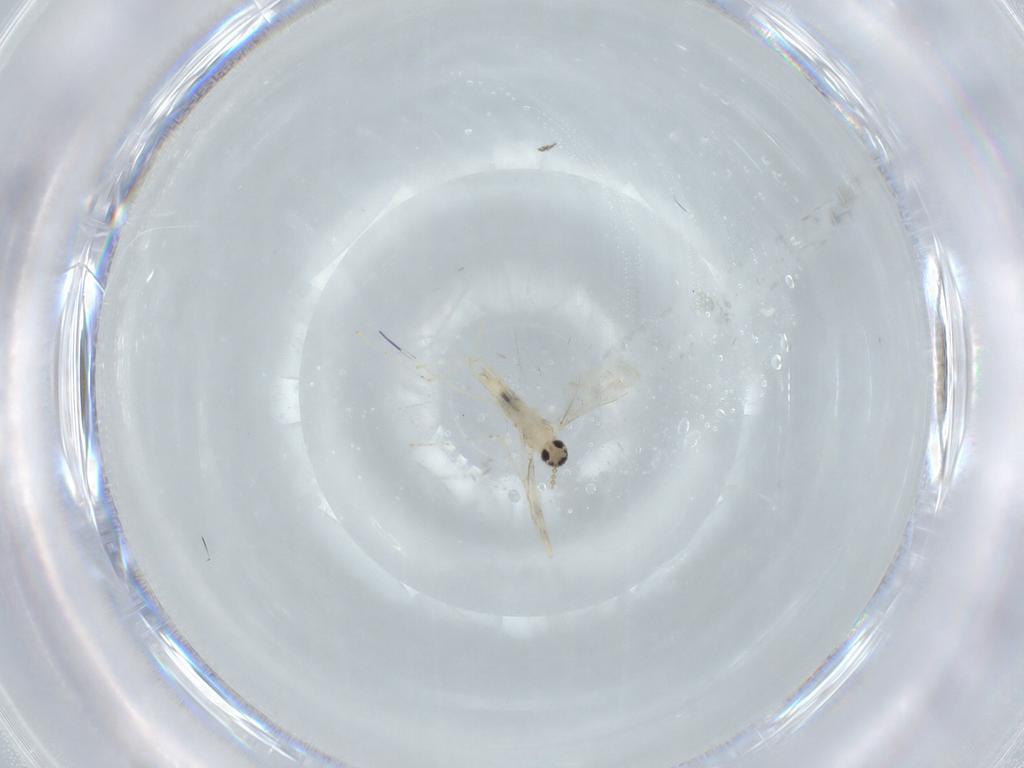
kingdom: Animalia
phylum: Arthropoda
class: Insecta
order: Diptera
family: Cecidomyiidae
